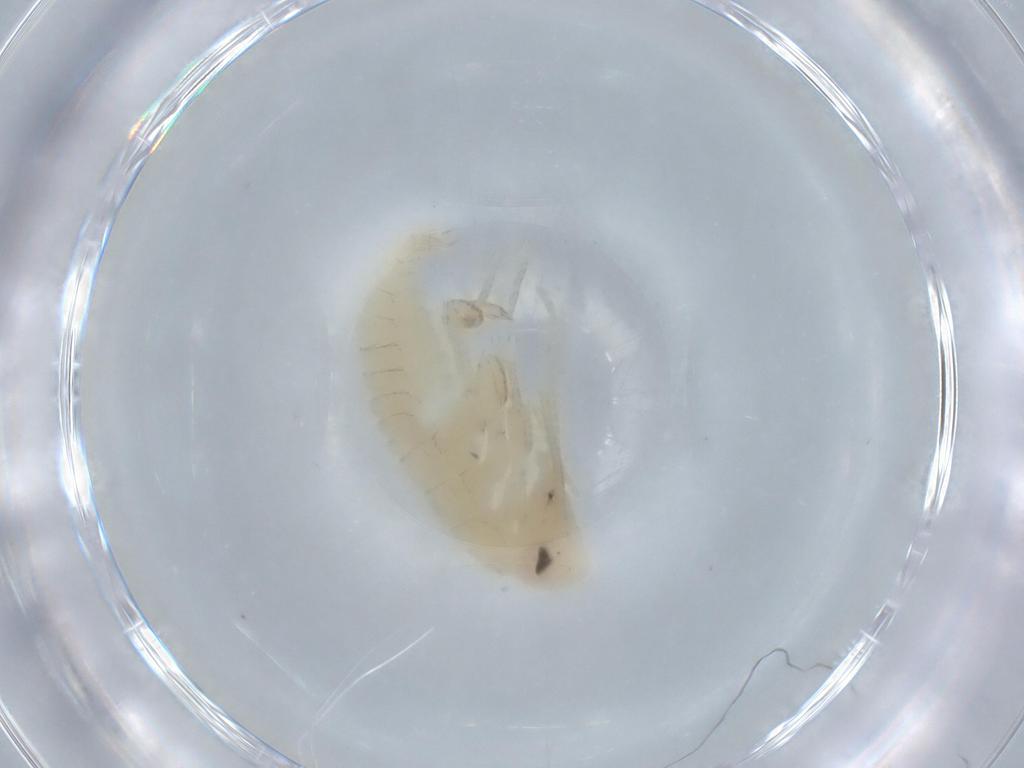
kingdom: Animalia
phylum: Arthropoda
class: Insecta
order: Blattodea
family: Ectobiidae
